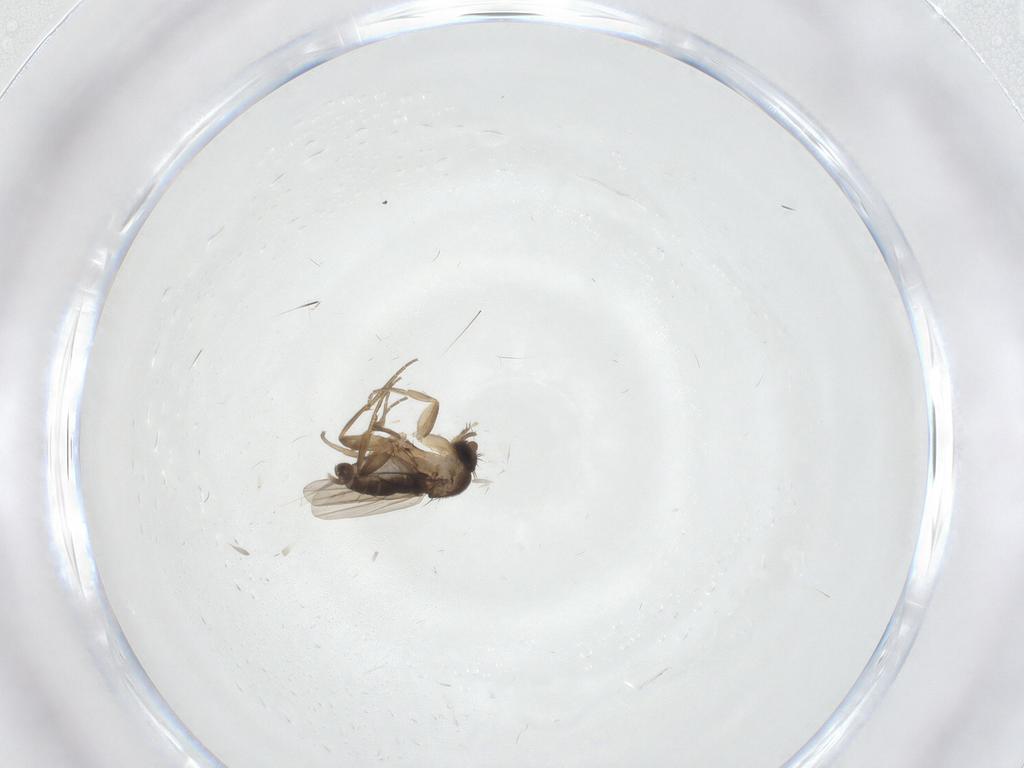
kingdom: Animalia
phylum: Arthropoda
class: Insecta
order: Diptera
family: Phoridae
